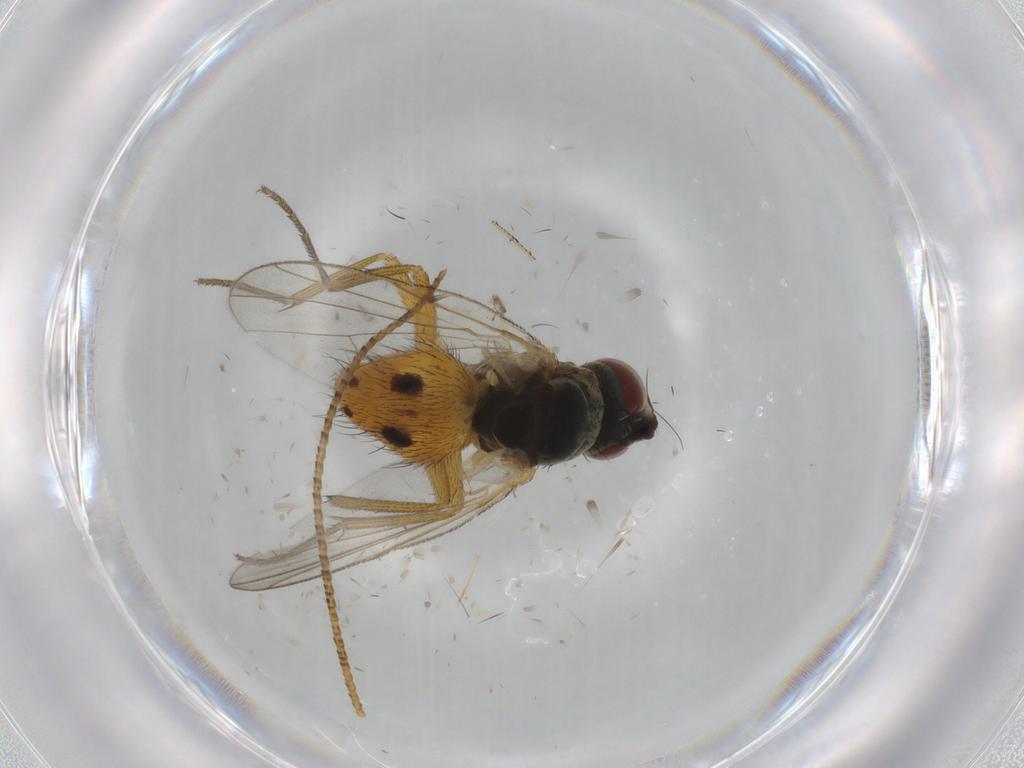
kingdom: Animalia
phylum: Arthropoda
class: Insecta
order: Diptera
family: Muscidae
